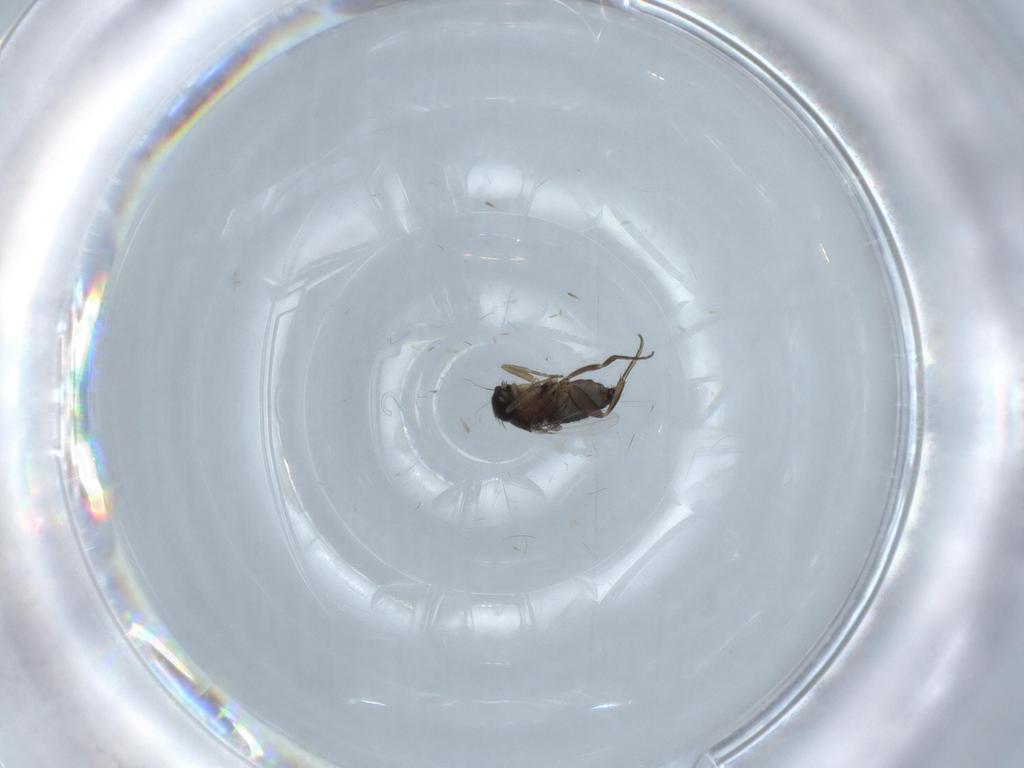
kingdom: Animalia
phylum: Arthropoda
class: Insecta
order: Diptera
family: Phoridae
